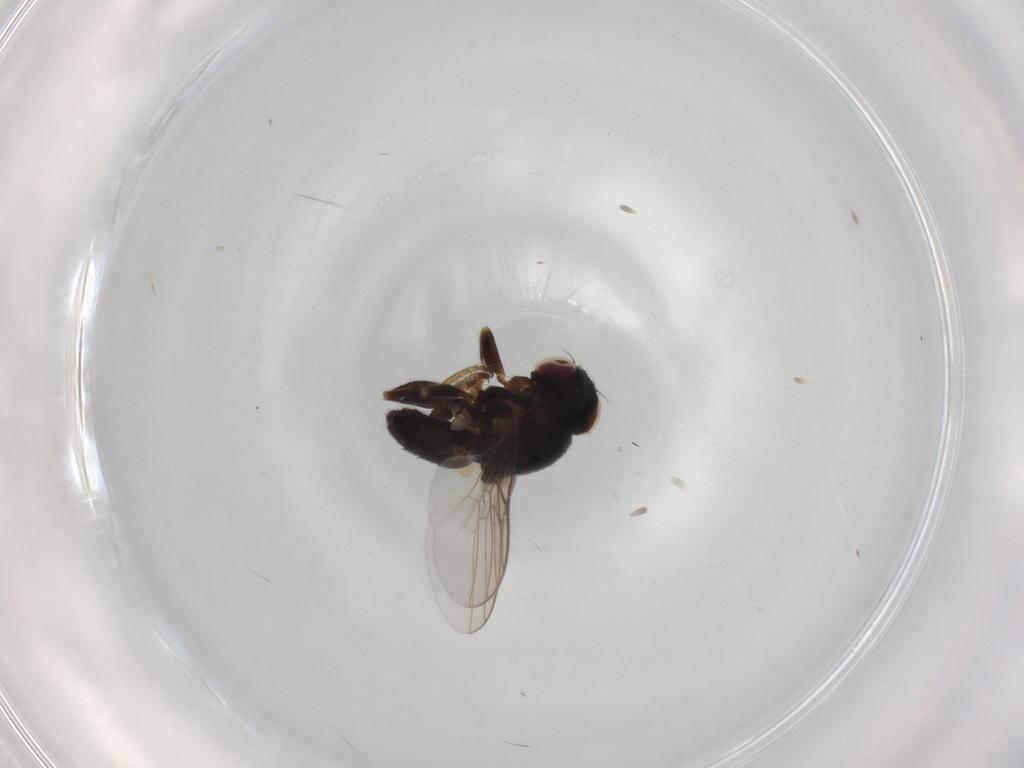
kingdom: Animalia
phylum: Arthropoda
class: Insecta
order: Diptera
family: Chloropidae
